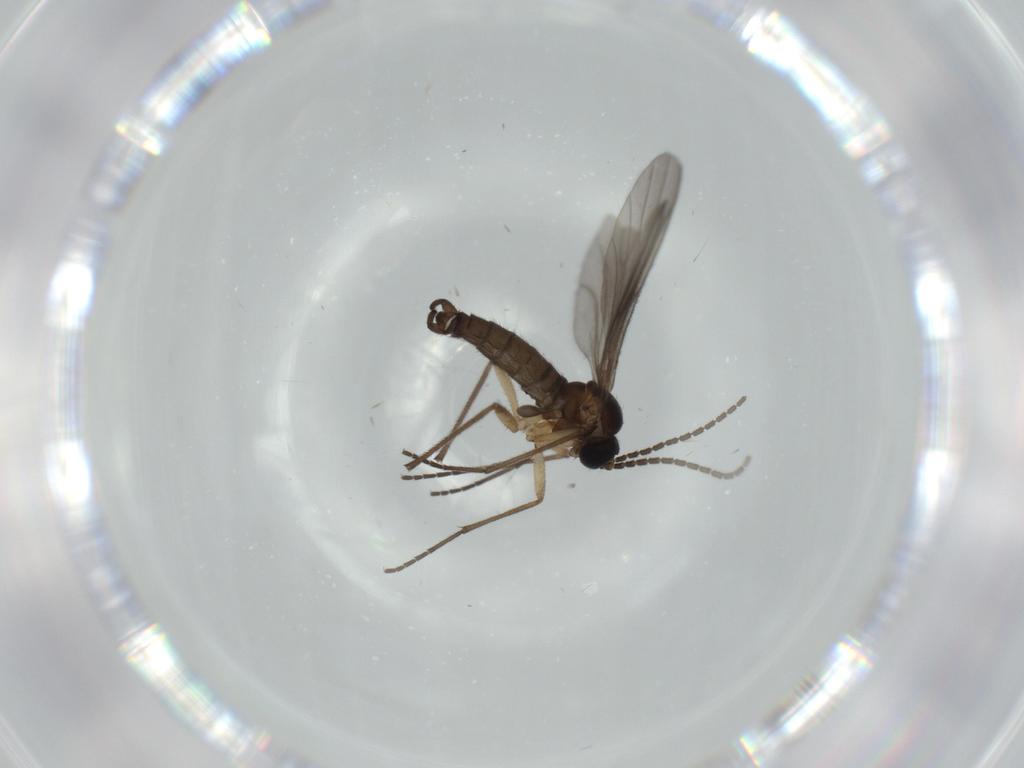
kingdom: Animalia
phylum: Arthropoda
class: Insecta
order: Diptera
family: Sciaridae
